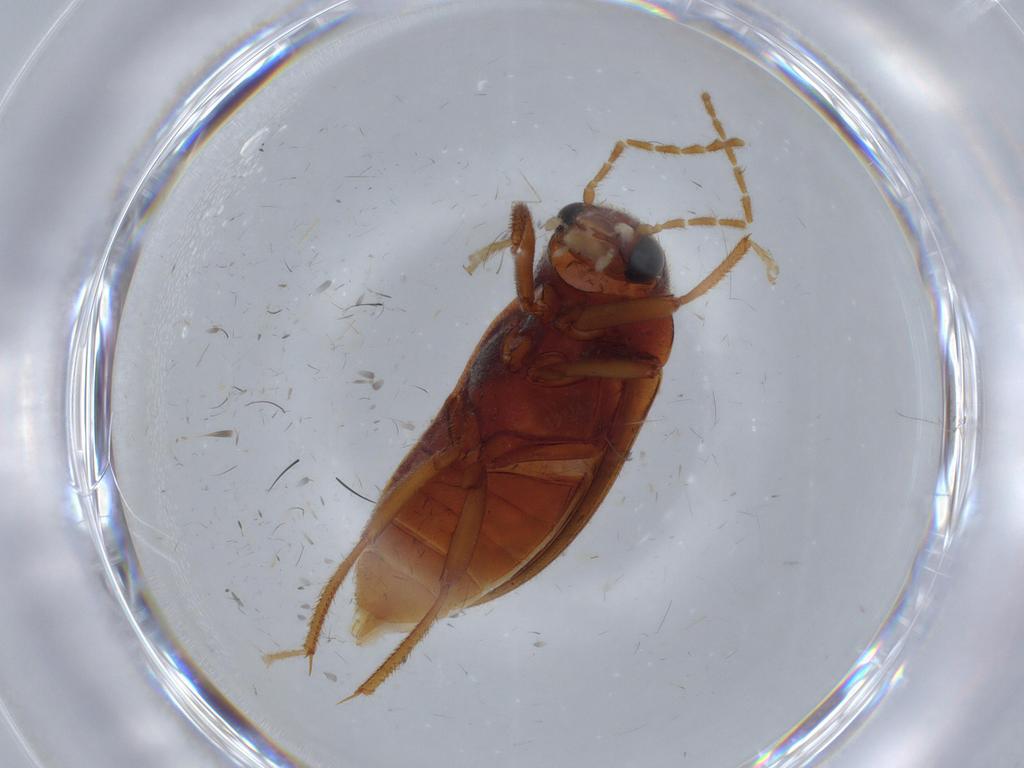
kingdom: Animalia
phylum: Arthropoda
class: Insecta
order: Coleoptera
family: Ptilodactylidae
